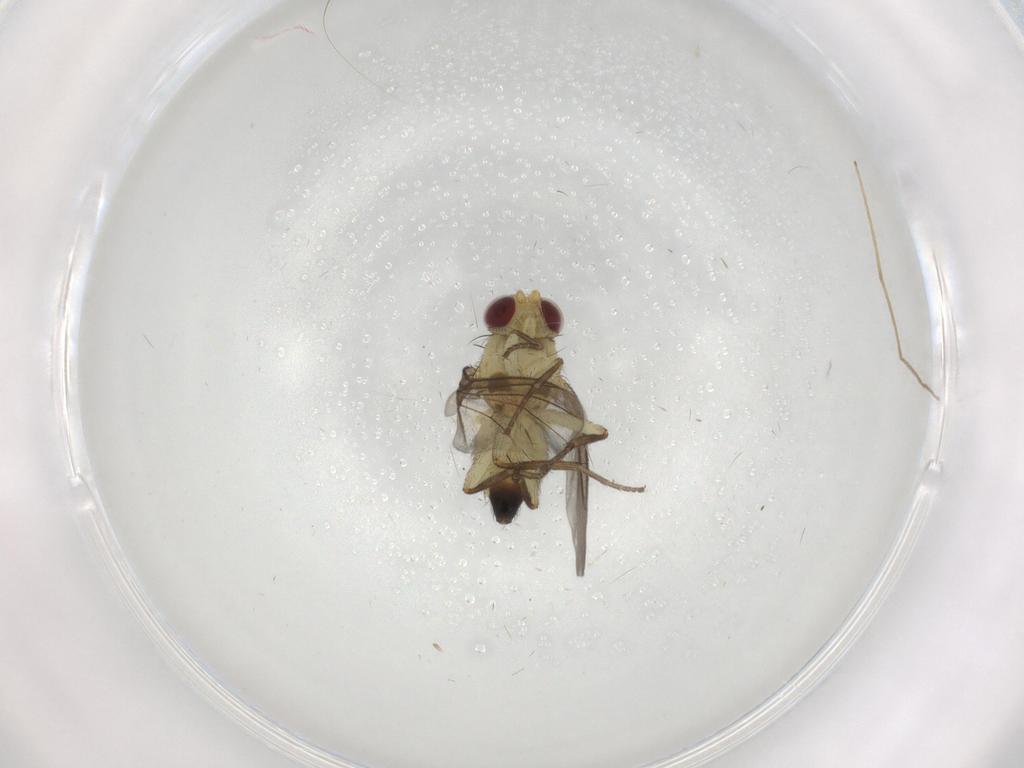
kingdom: Animalia
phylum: Arthropoda
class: Insecta
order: Diptera
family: Agromyzidae
